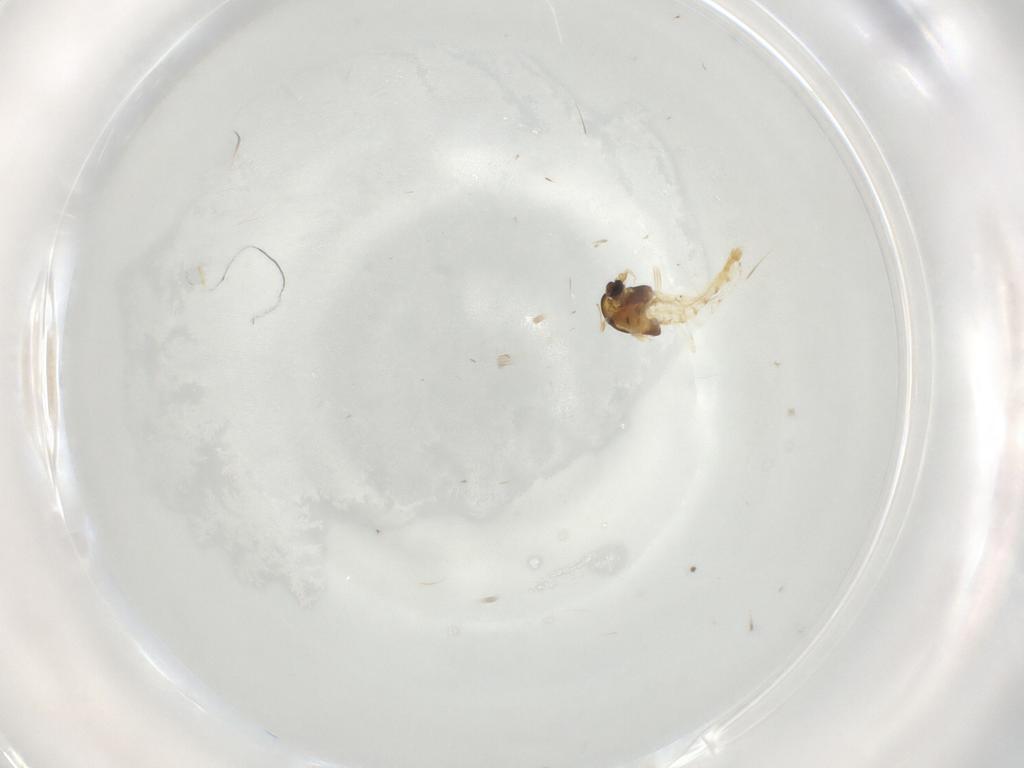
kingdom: Animalia
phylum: Arthropoda
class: Insecta
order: Diptera
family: Chironomidae
